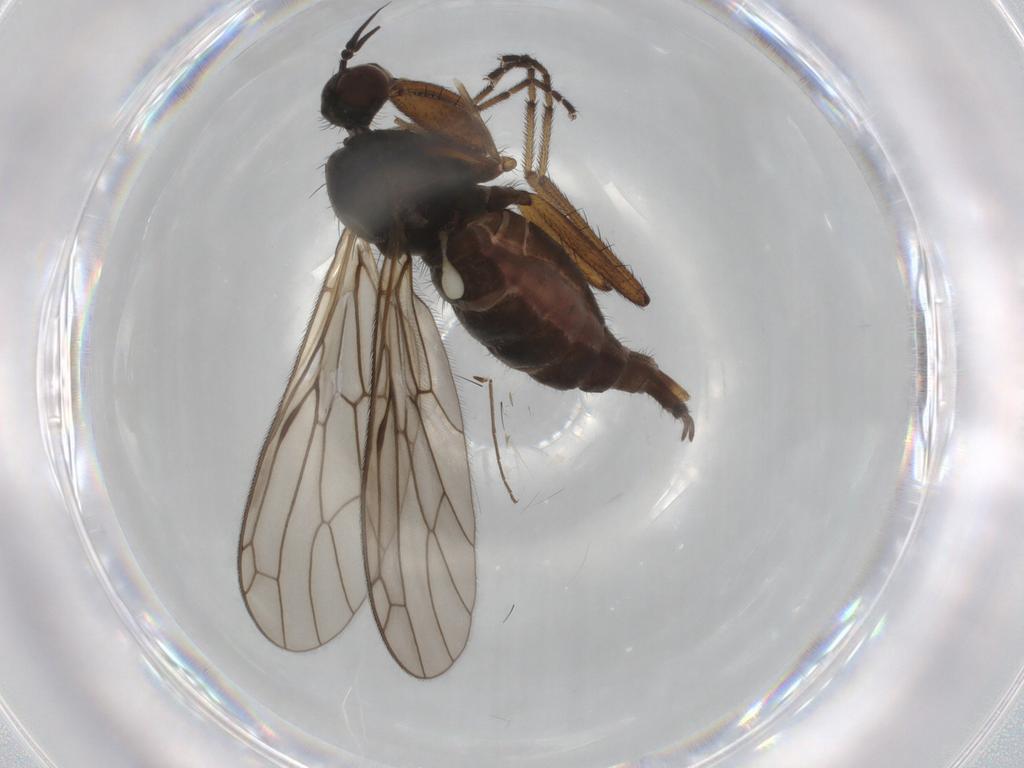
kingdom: Animalia
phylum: Arthropoda
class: Insecta
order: Diptera
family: Empididae
